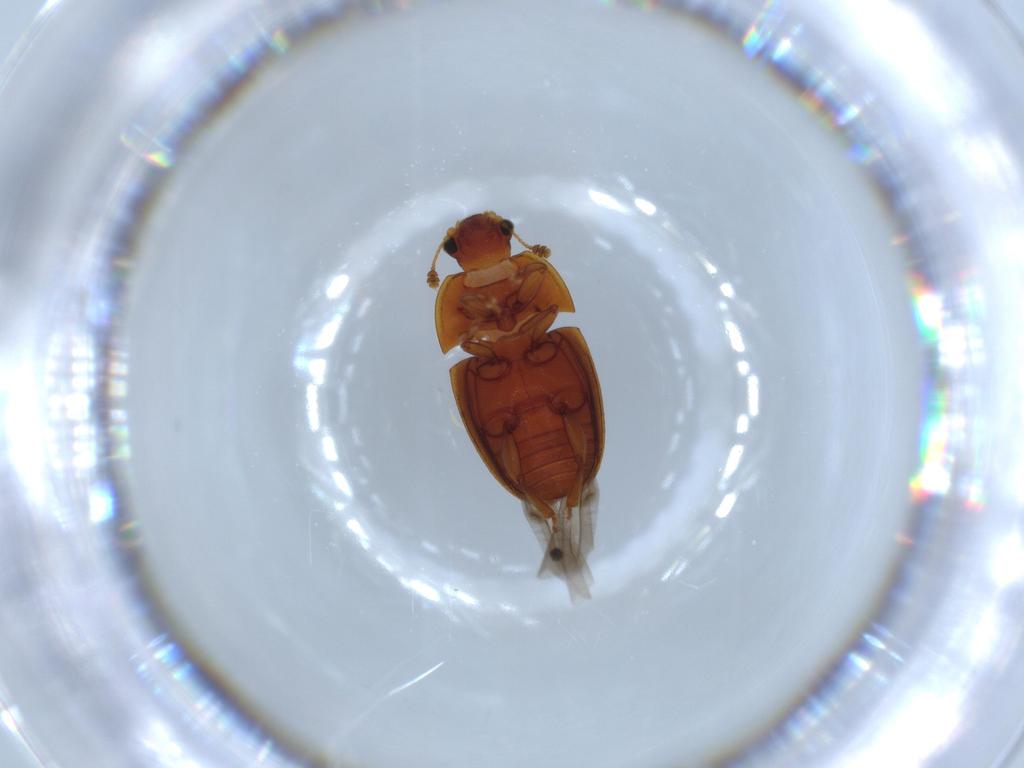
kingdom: Animalia
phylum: Arthropoda
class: Insecta
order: Coleoptera
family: Scraptiidae
